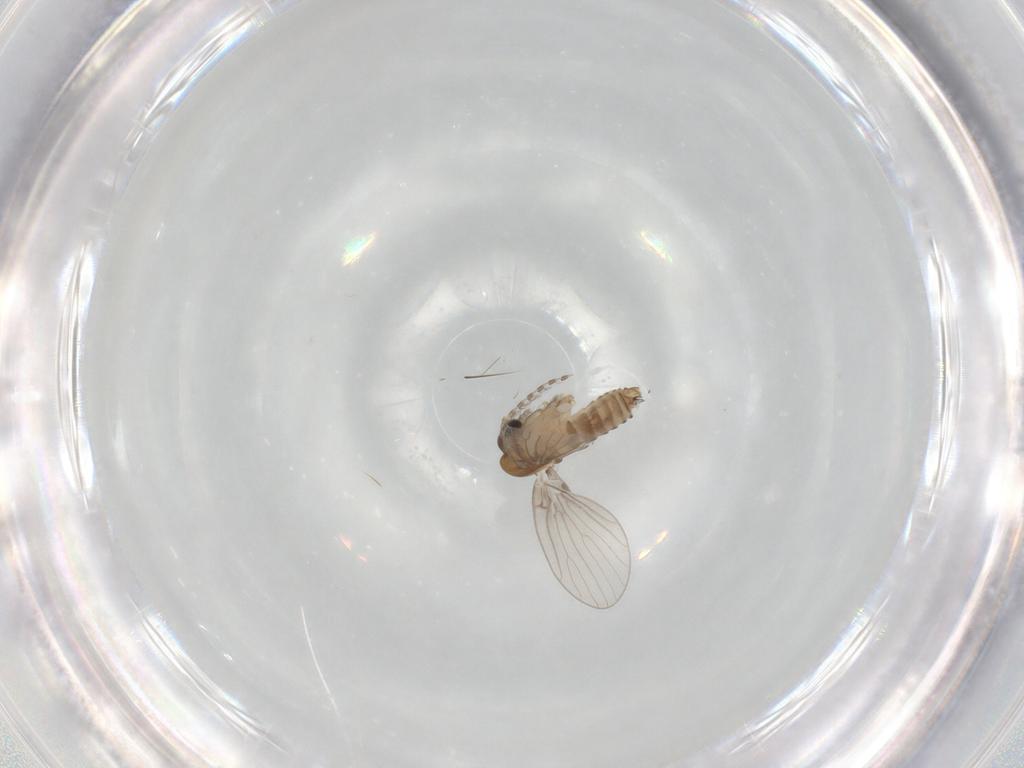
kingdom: Animalia
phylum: Arthropoda
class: Insecta
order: Diptera
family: Psychodidae
